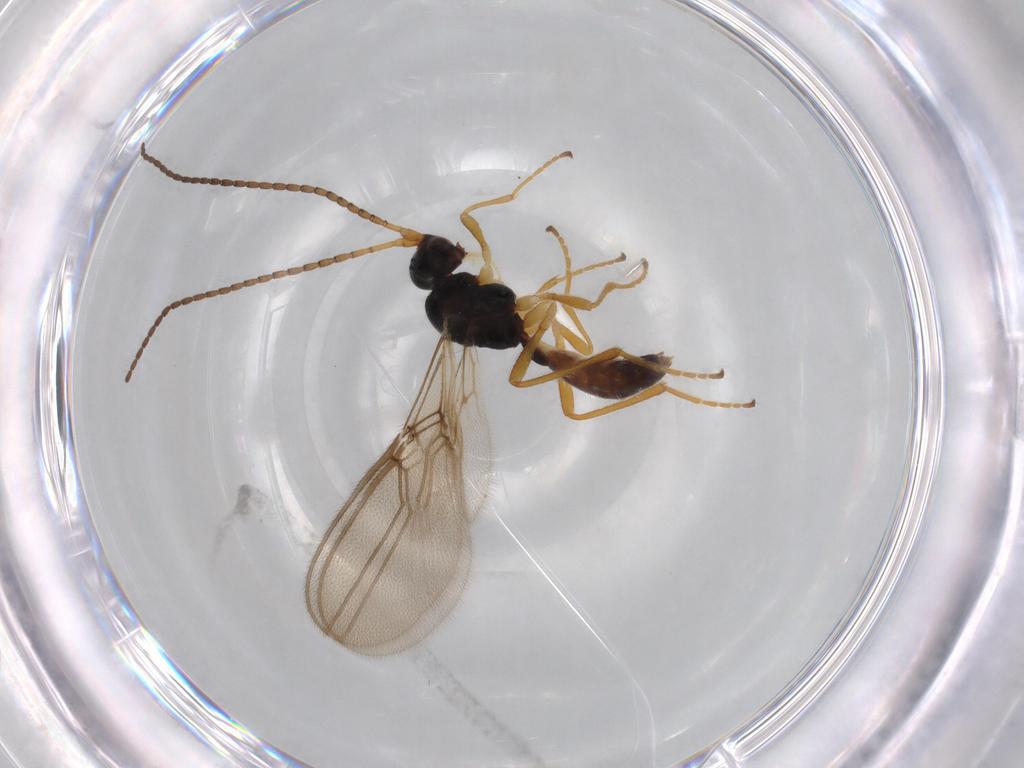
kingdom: Animalia
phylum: Arthropoda
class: Insecta
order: Hymenoptera
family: Braconidae
